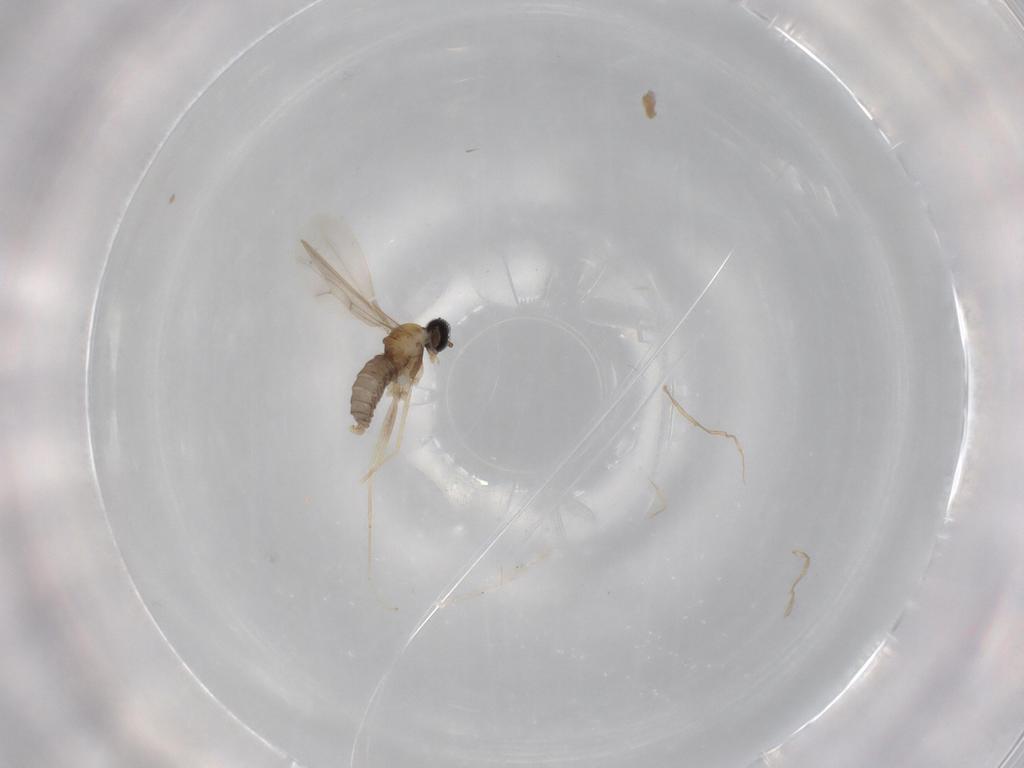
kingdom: Animalia
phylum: Arthropoda
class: Insecta
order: Diptera
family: Cecidomyiidae
